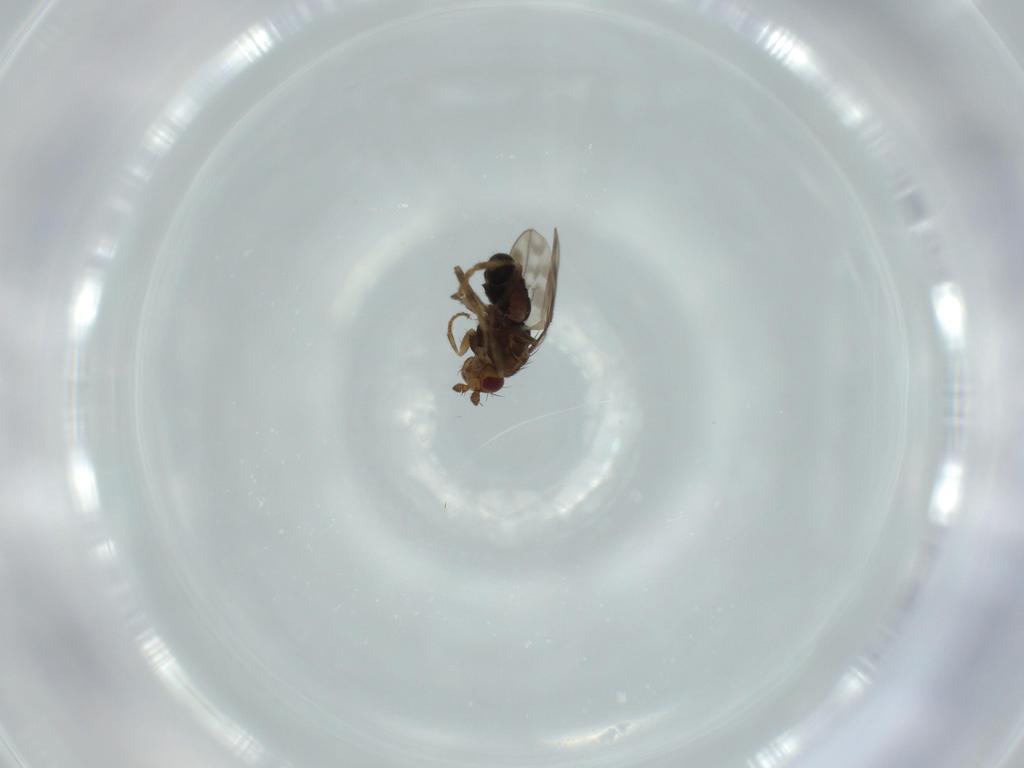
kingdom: Animalia
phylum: Arthropoda
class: Insecta
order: Diptera
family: Sphaeroceridae
